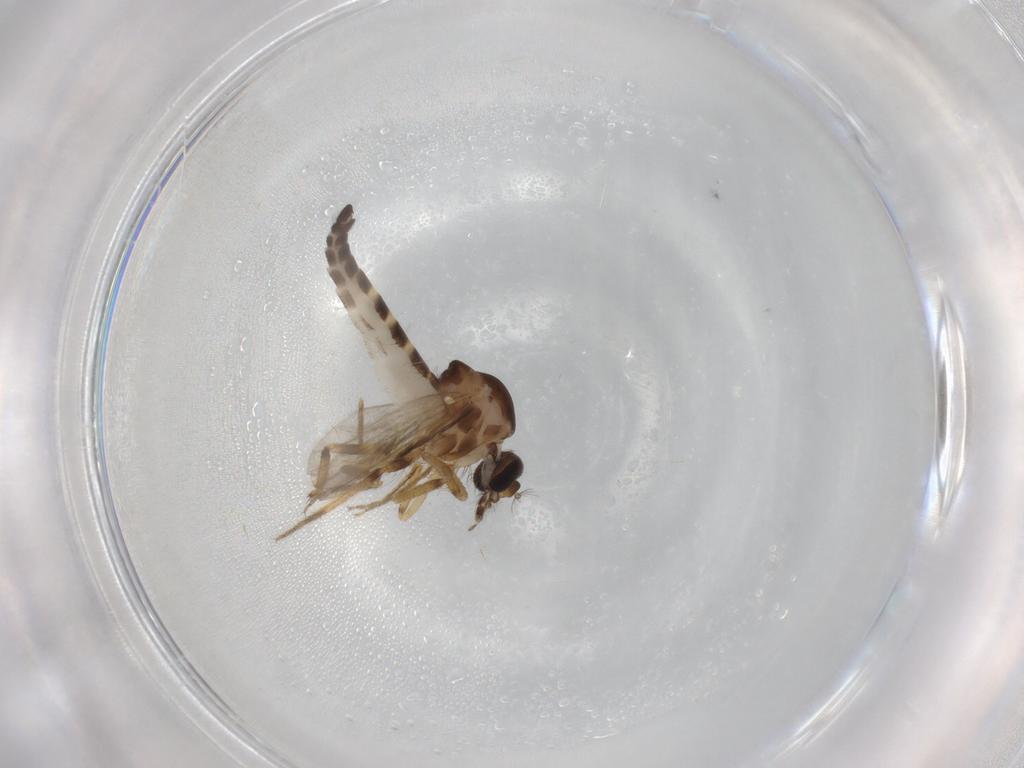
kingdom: Animalia
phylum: Arthropoda
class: Insecta
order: Diptera
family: Ceratopogonidae
